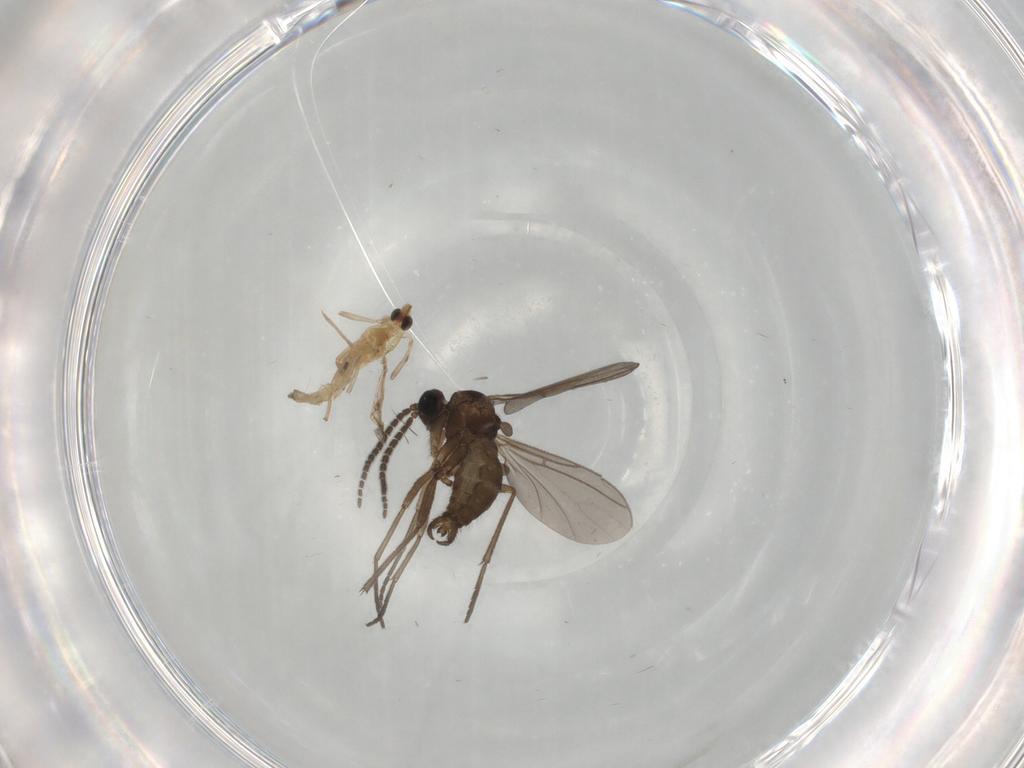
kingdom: Animalia
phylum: Arthropoda
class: Insecta
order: Diptera
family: Chironomidae
